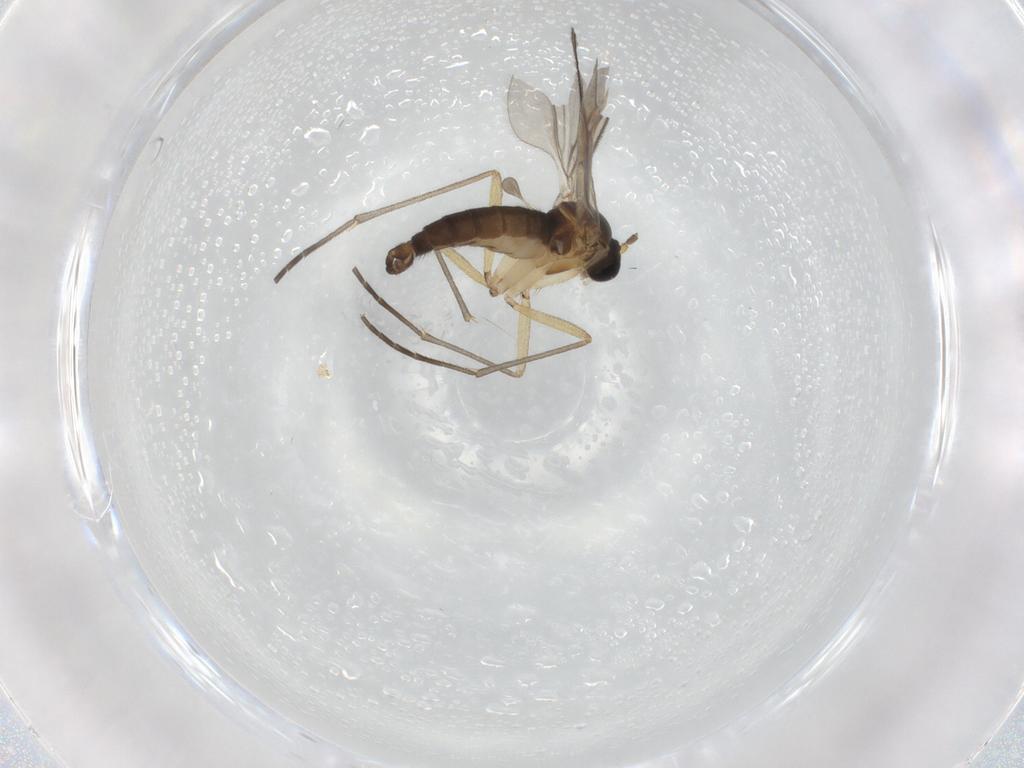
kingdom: Animalia
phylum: Arthropoda
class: Insecta
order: Diptera
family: Sciaridae
